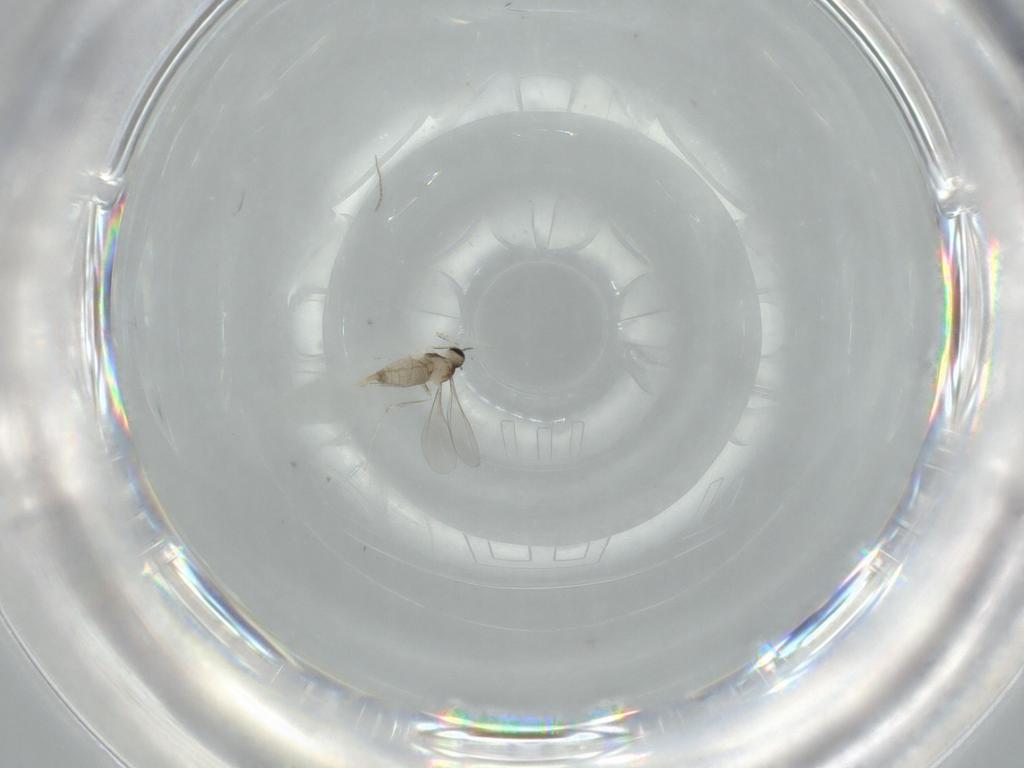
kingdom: Animalia
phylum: Arthropoda
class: Insecta
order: Diptera
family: Cecidomyiidae
